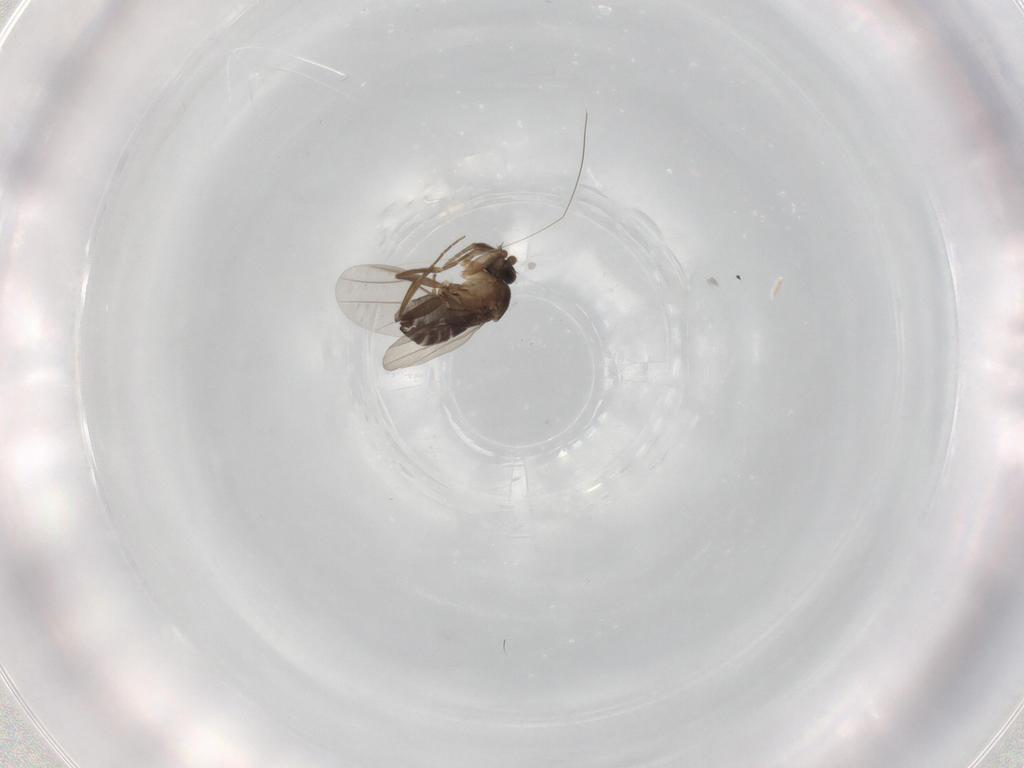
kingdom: Animalia
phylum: Arthropoda
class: Insecta
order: Diptera
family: Phoridae
